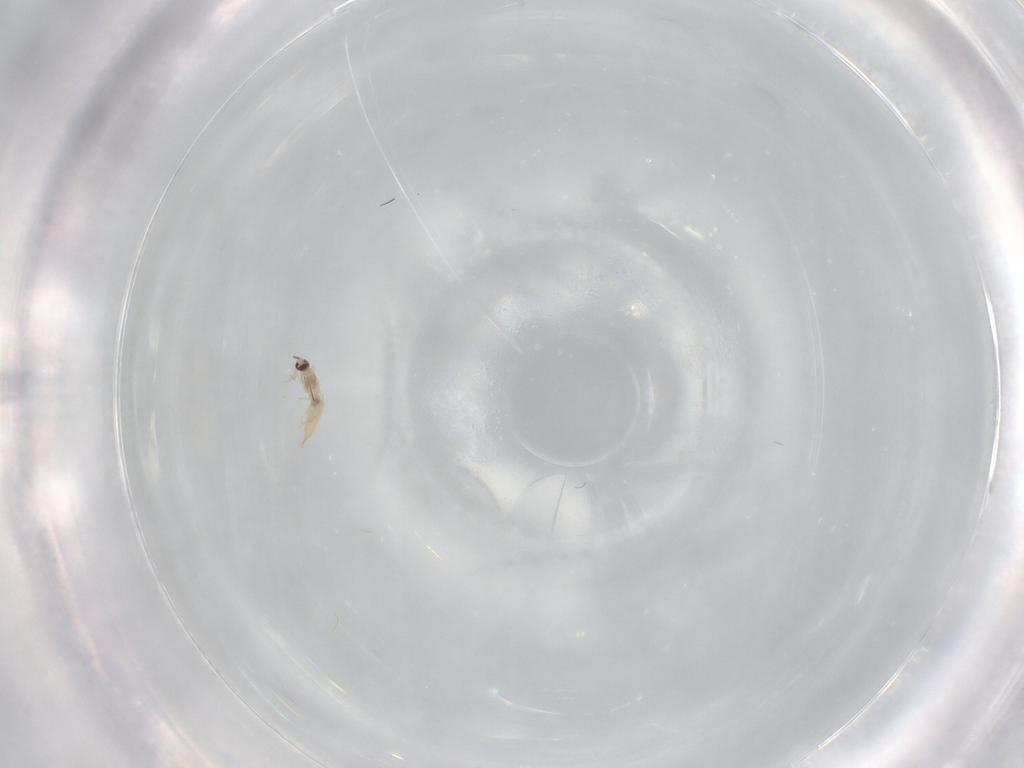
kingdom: Animalia
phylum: Arthropoda
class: Insecta
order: Diptera
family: Cecidomyiidae
